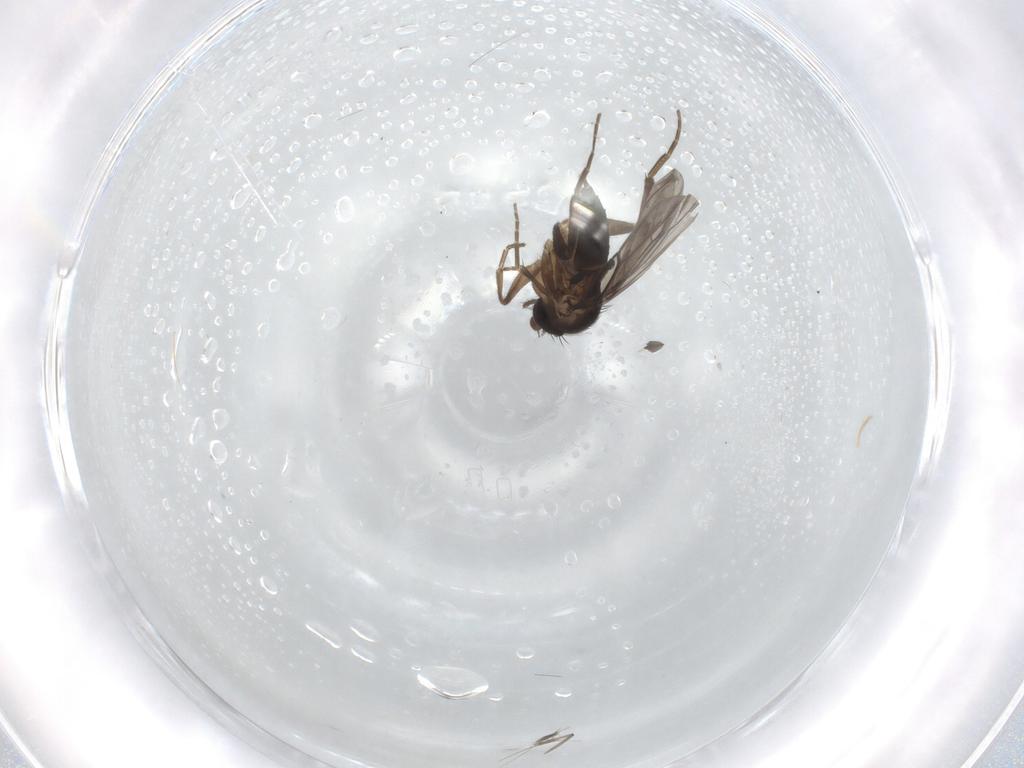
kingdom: Animalia
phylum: Arthropoda
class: Insecta
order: Diptera
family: Phoridae
